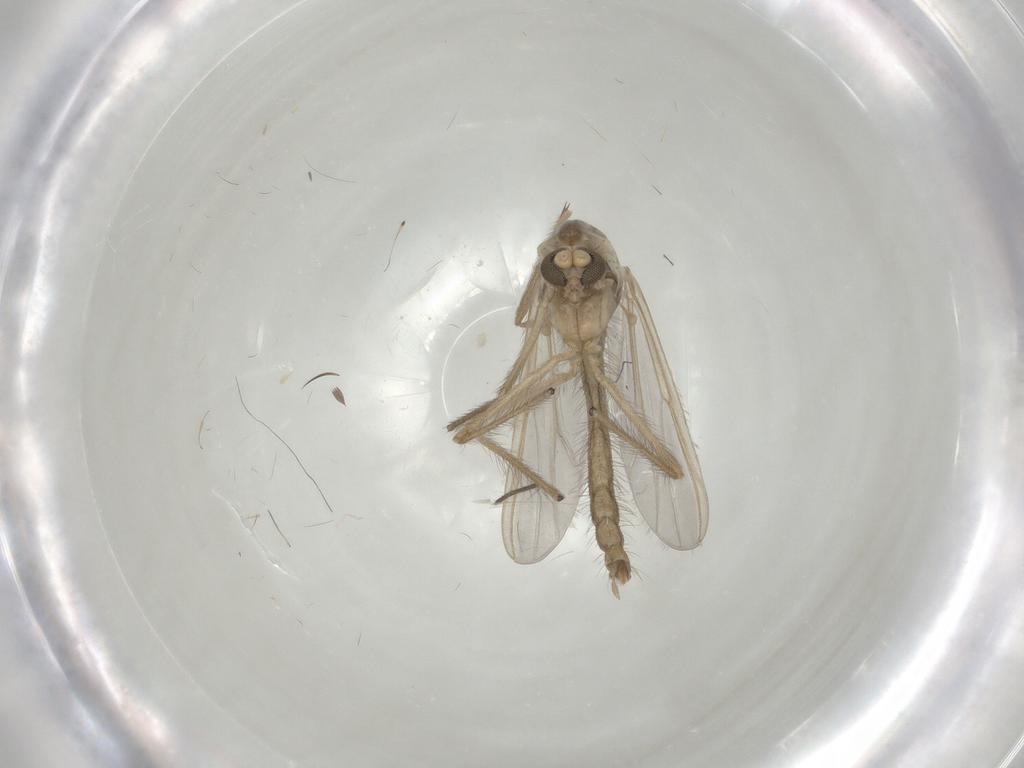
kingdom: Animalia
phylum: Arthropoda
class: Insecta
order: Diptera
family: Chironomidae
